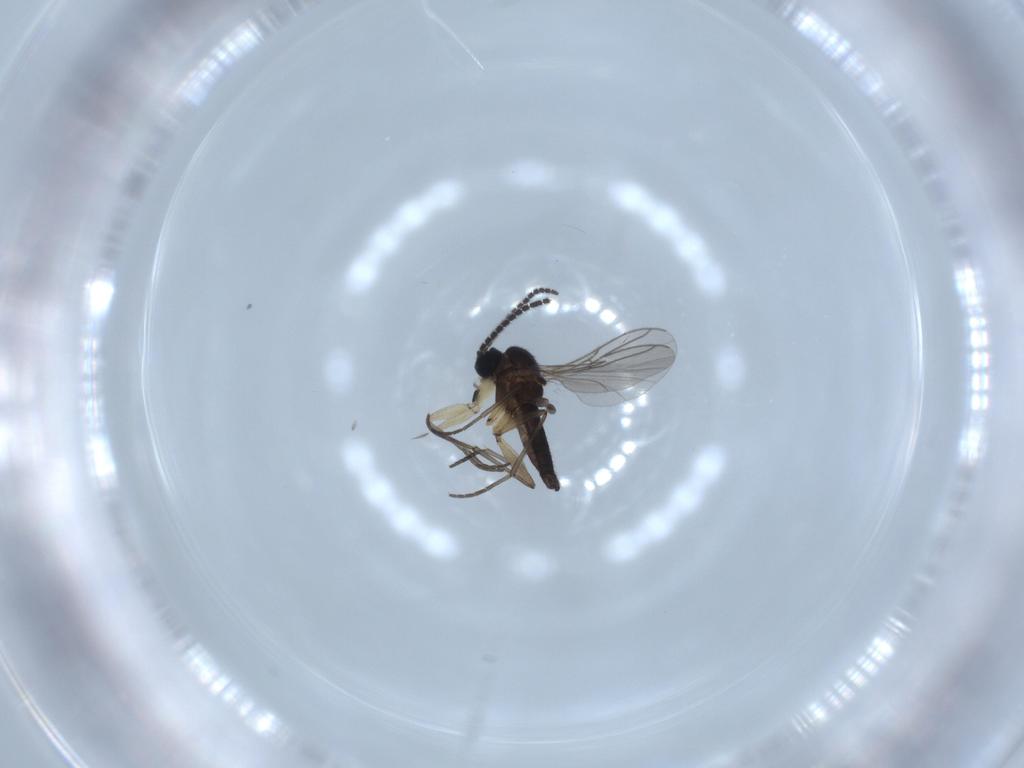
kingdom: Animalia
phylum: Arthropoda
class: Insecta
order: Diptera
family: Sciaridae
